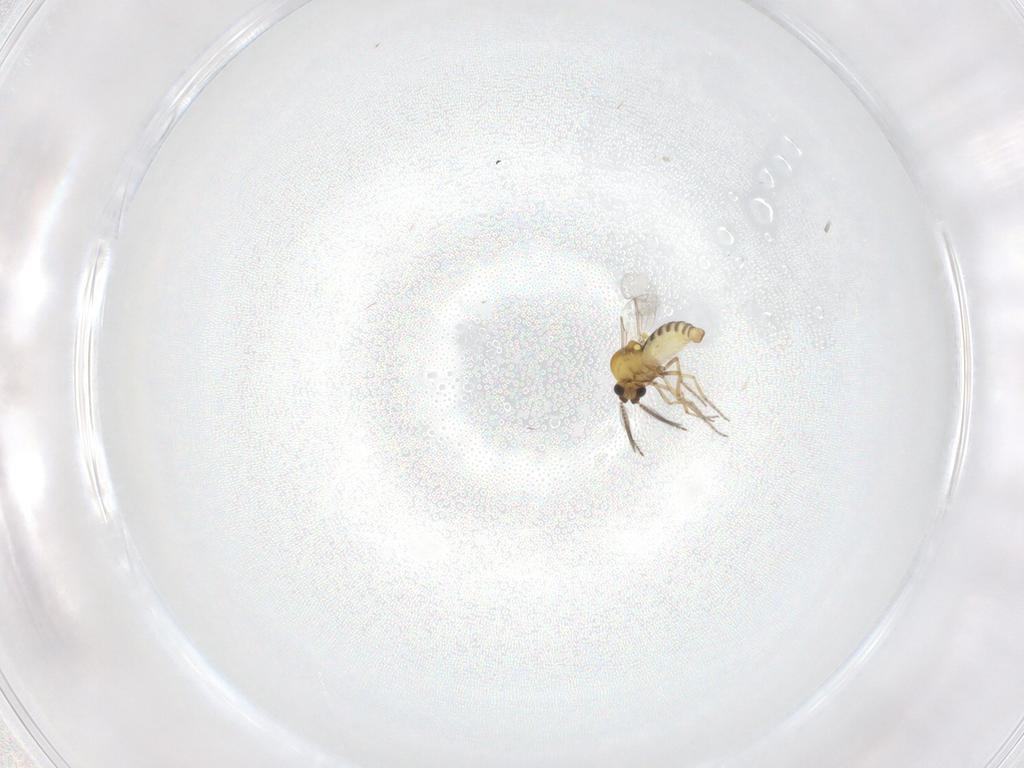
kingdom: Animalia
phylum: Arthropoda
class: Insecta
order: Diptera
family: Ceratopogonidae
